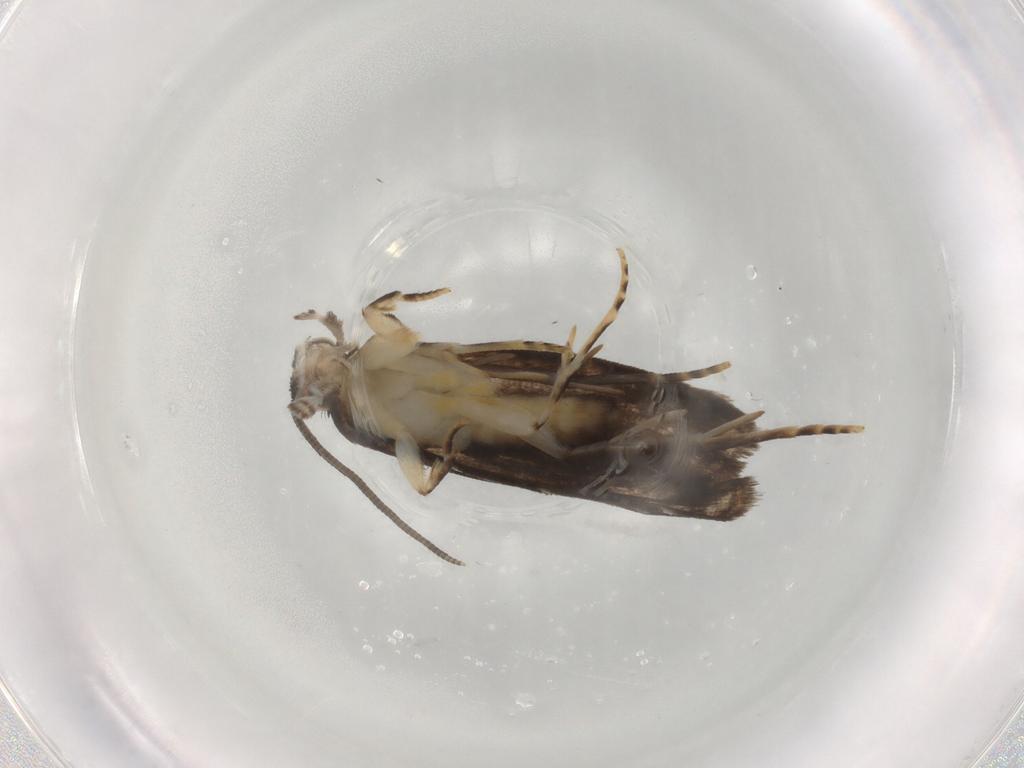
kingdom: Animalia
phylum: Arthropoda
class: Insecta
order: Lepidoptera
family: Dryadaulidae
